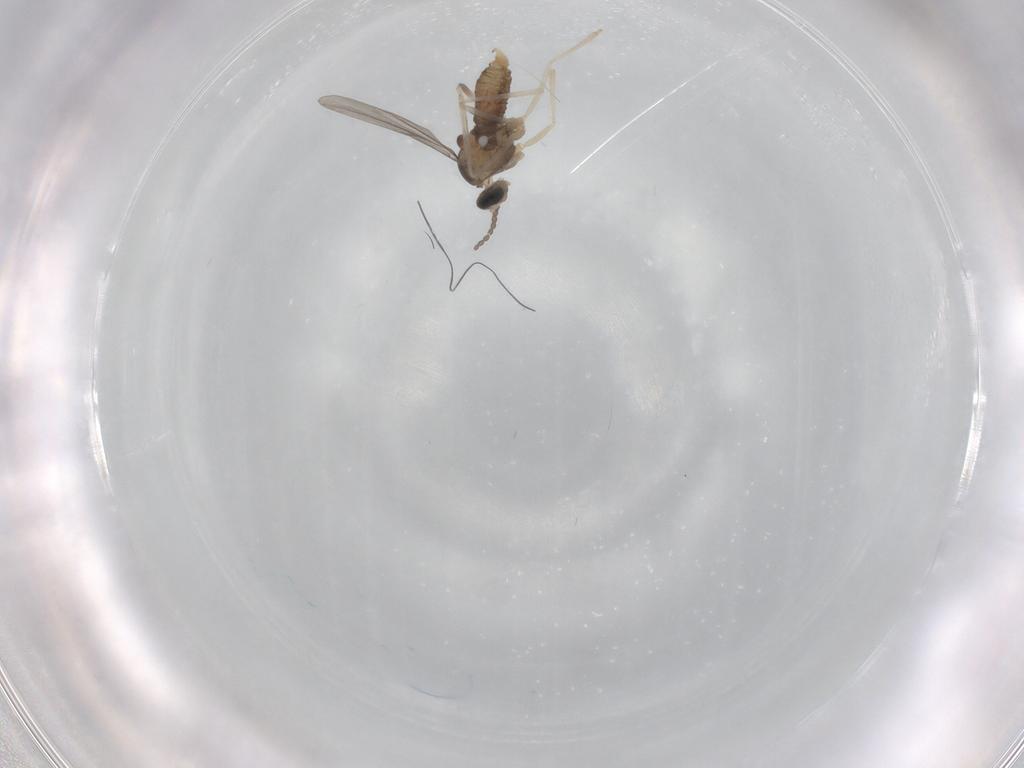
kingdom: Animalia
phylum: Arthropoda
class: Insecta
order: Diptera
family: Cecidomyiidae
